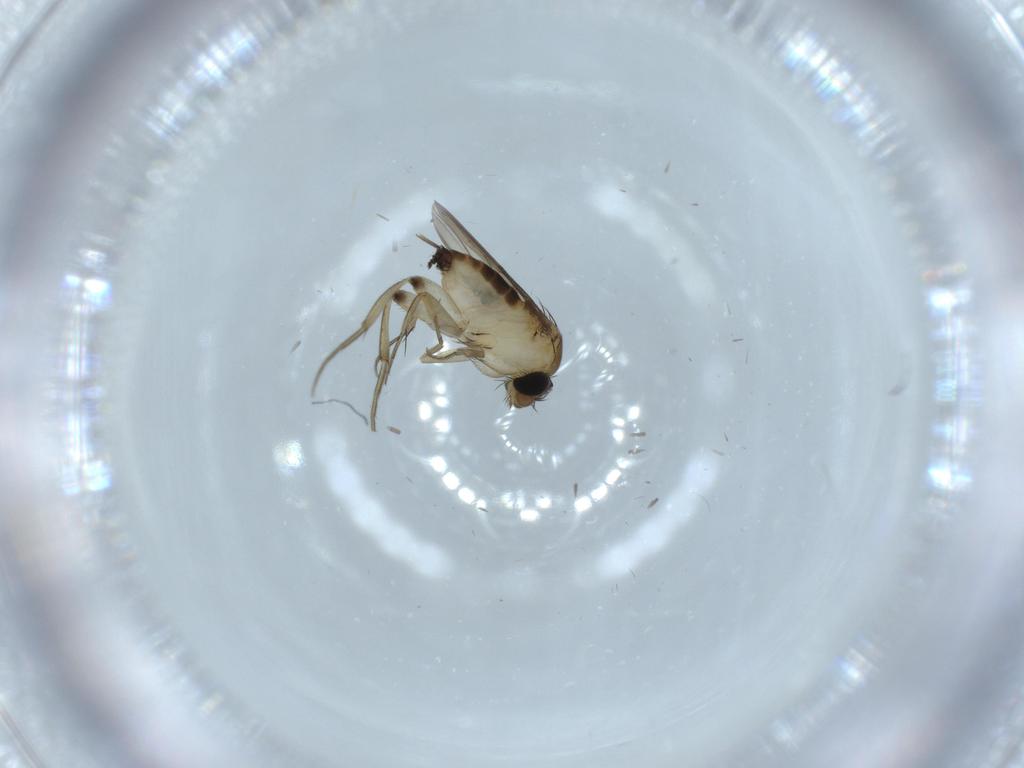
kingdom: Animalia
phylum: Arthropoda
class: Insecta
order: Diptera
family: Phoridae
